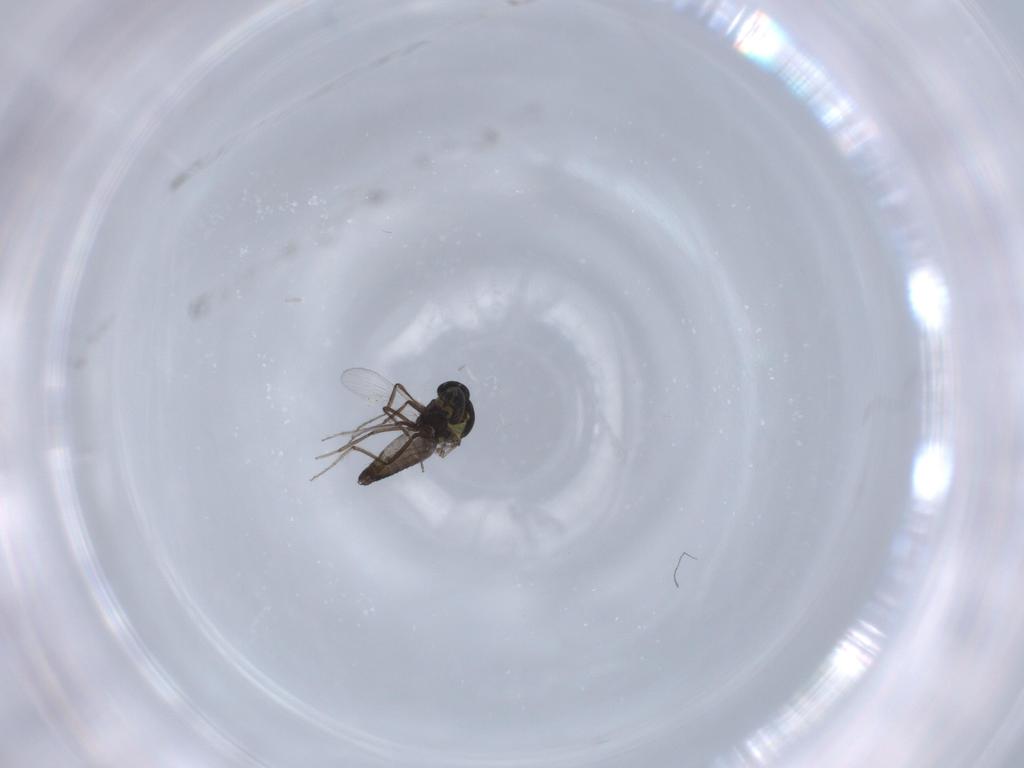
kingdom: Animalia
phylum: Arthropoda
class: Insecta
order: Diptera
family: Ceratopogonidae
